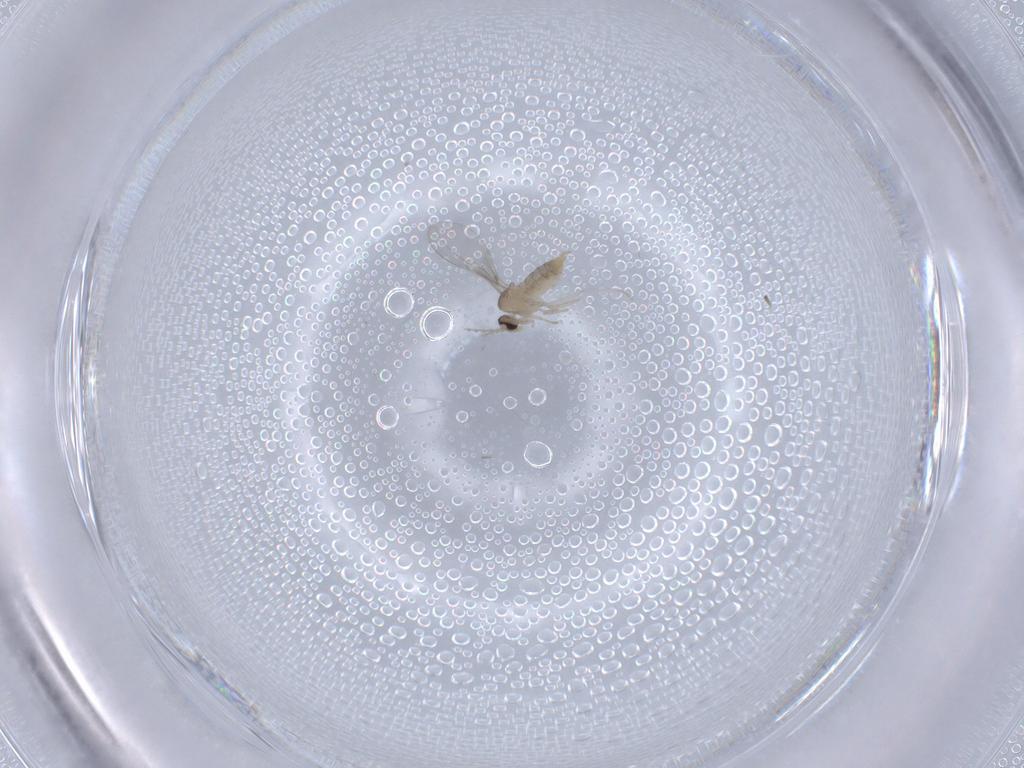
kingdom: Animalia
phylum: Arthropoda
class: Insecta
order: Diptera
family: Cecidomyiidae
